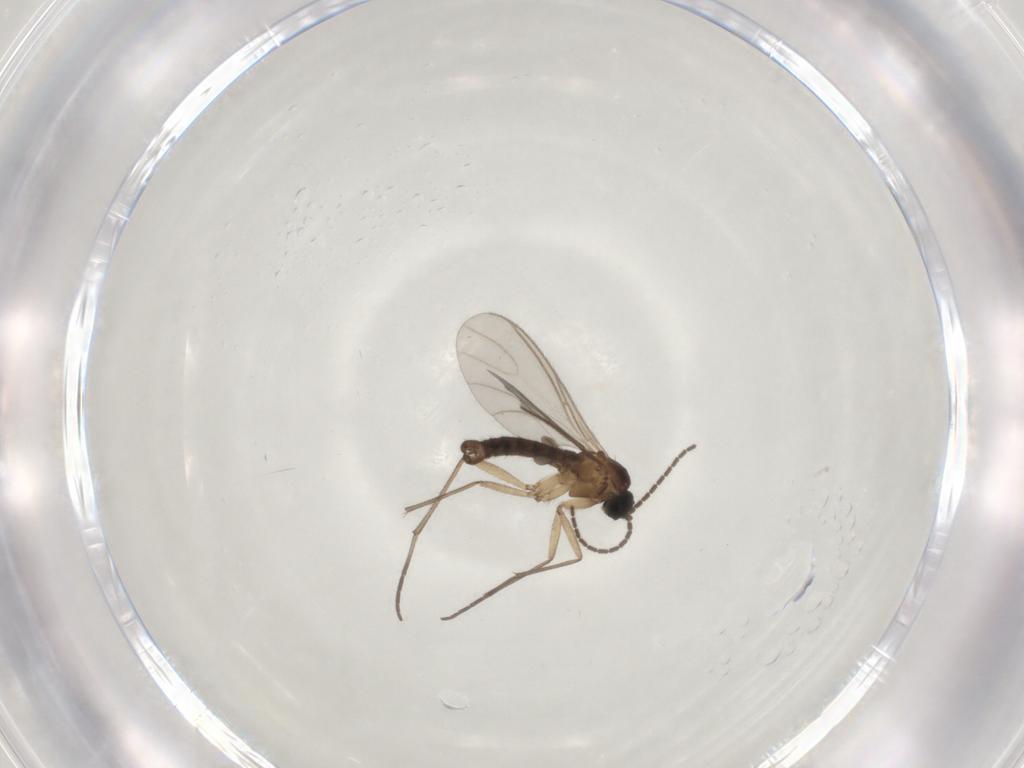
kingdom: Animalia
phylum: Arthropoda
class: Insecta
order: Diptera
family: Sciaridae
